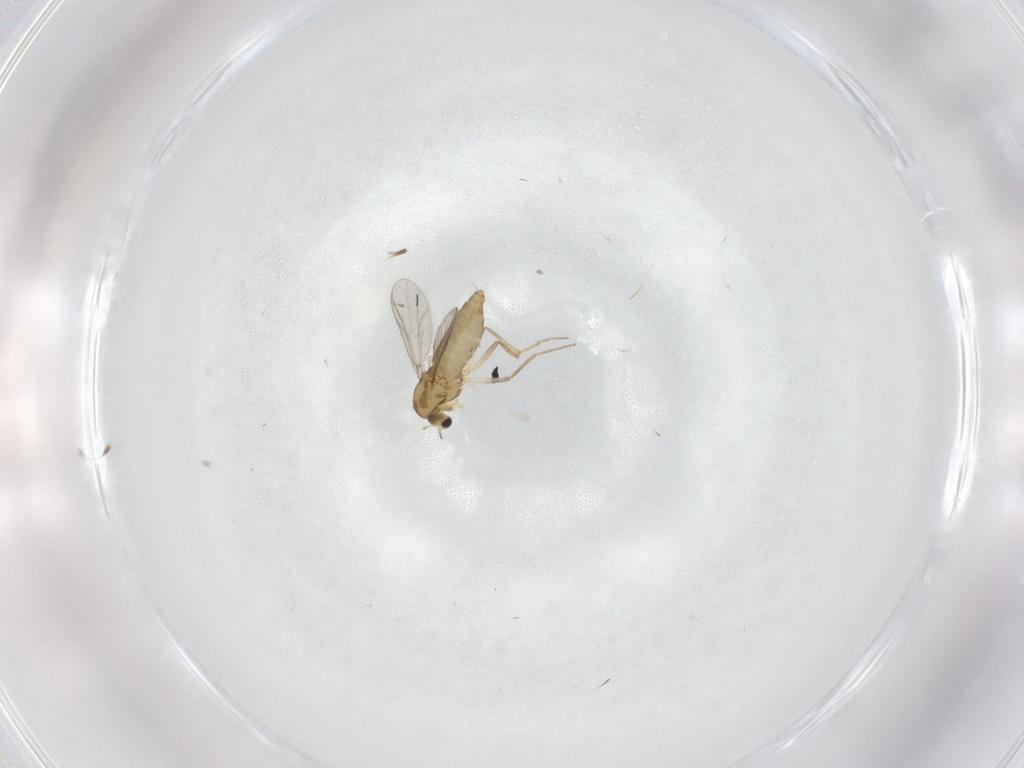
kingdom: Animalia
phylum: Arthropoda
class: Insecta
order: Diptera
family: Chironomidae
